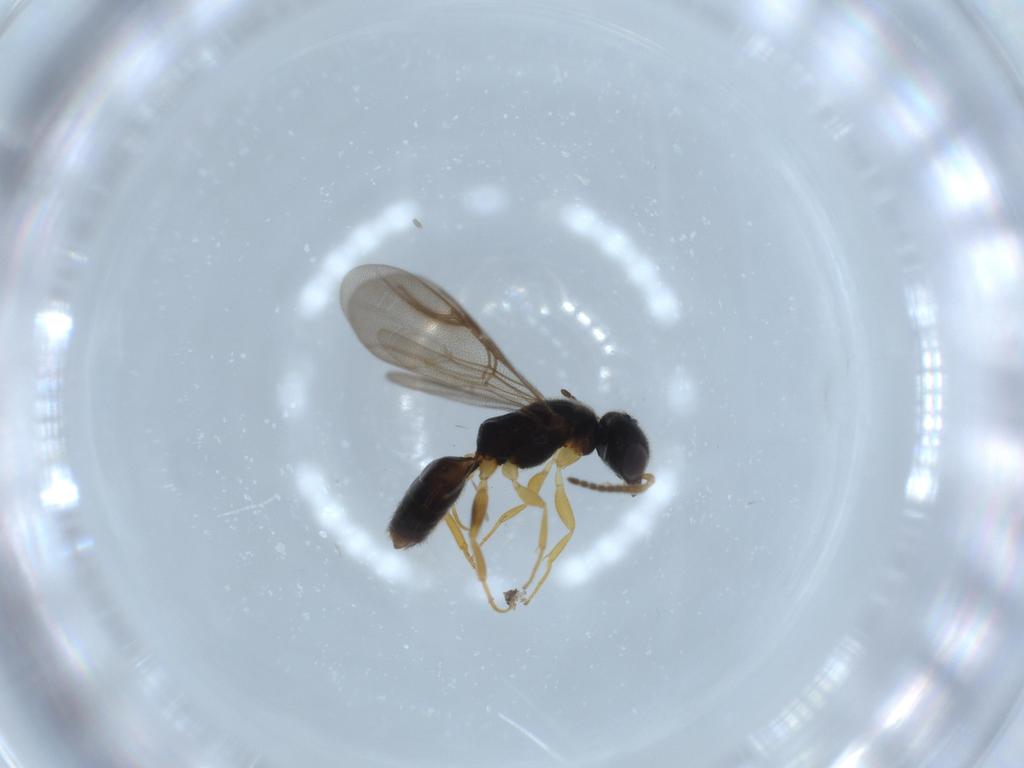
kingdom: Animalia
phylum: Arthropoda
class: Insecta
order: Hymenoptera
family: Bethylidae
